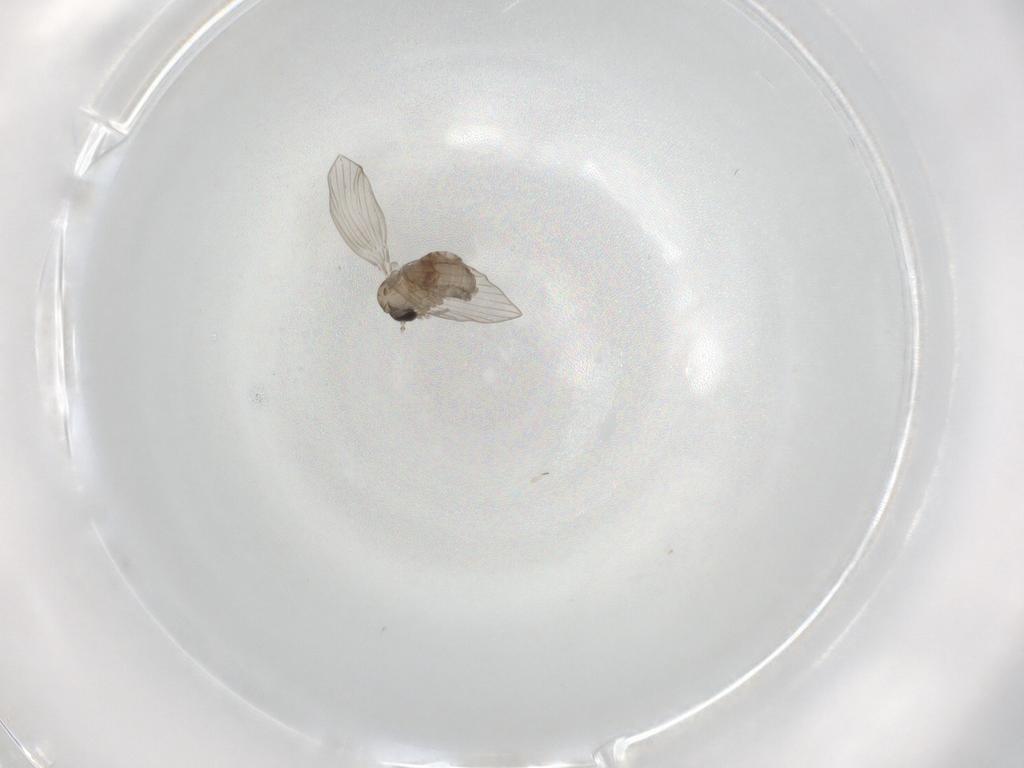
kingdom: Animalia
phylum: Arthropoda
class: Insecta
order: Diptera
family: Psychodidae
